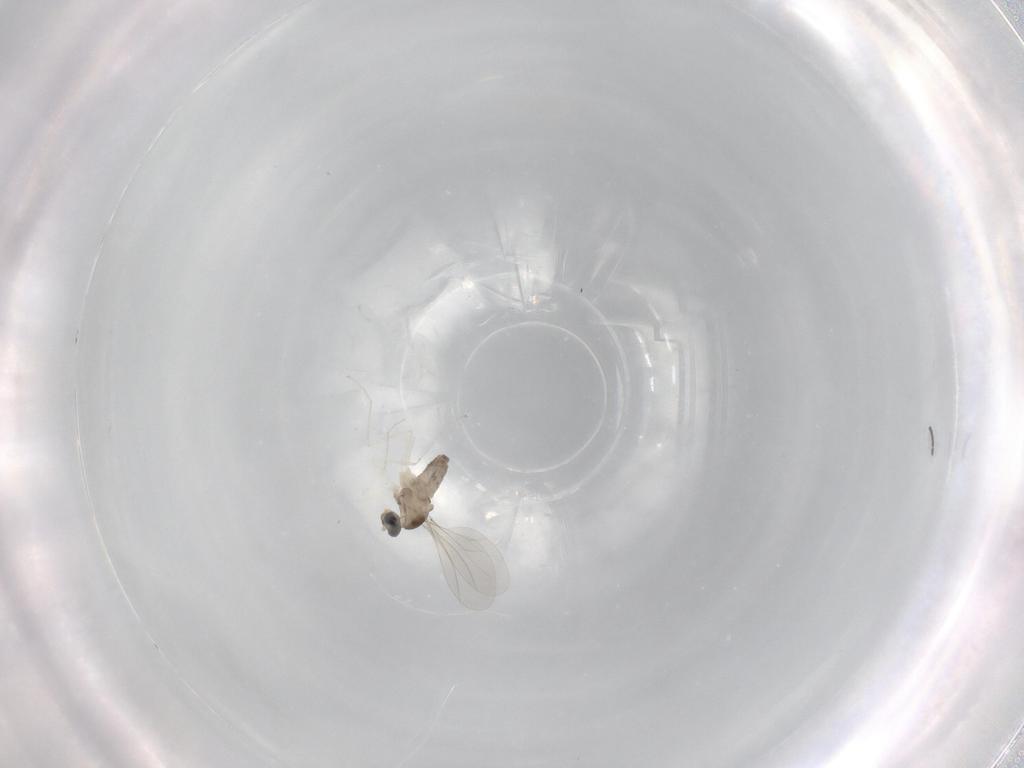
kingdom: Animalia
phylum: Arthropoda
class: Insecta
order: Diptera
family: Cecidomyiidae
